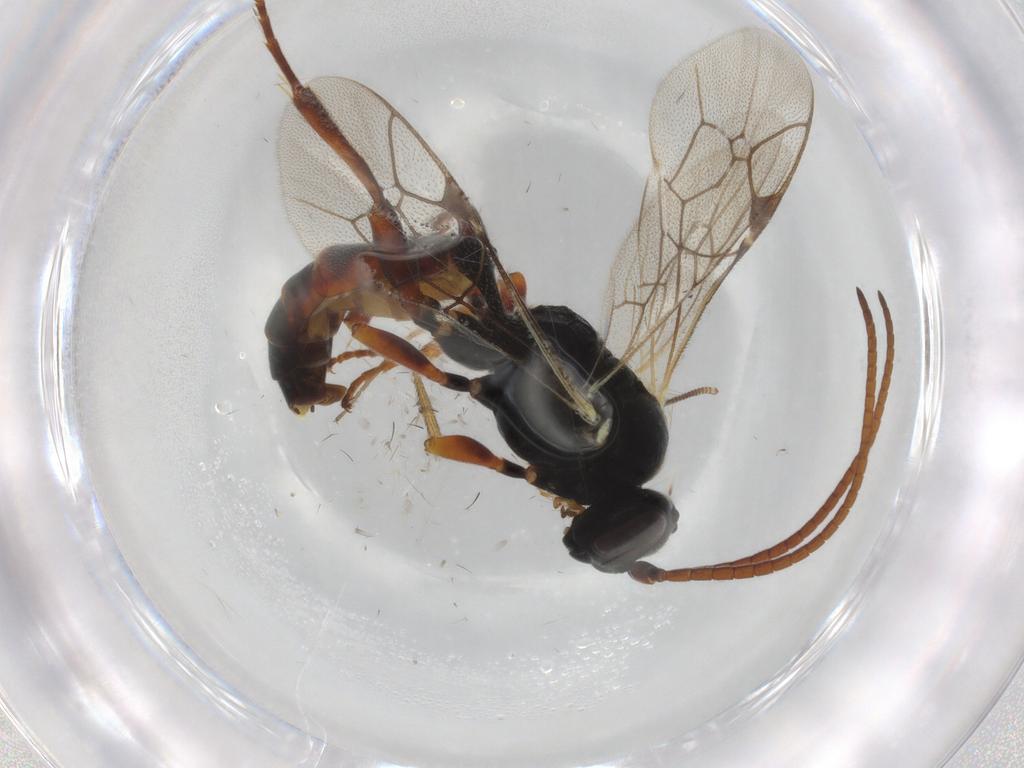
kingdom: Animalia
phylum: Arthropoda
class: Insecta
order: Hymenoptera
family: Ichneumonidae
